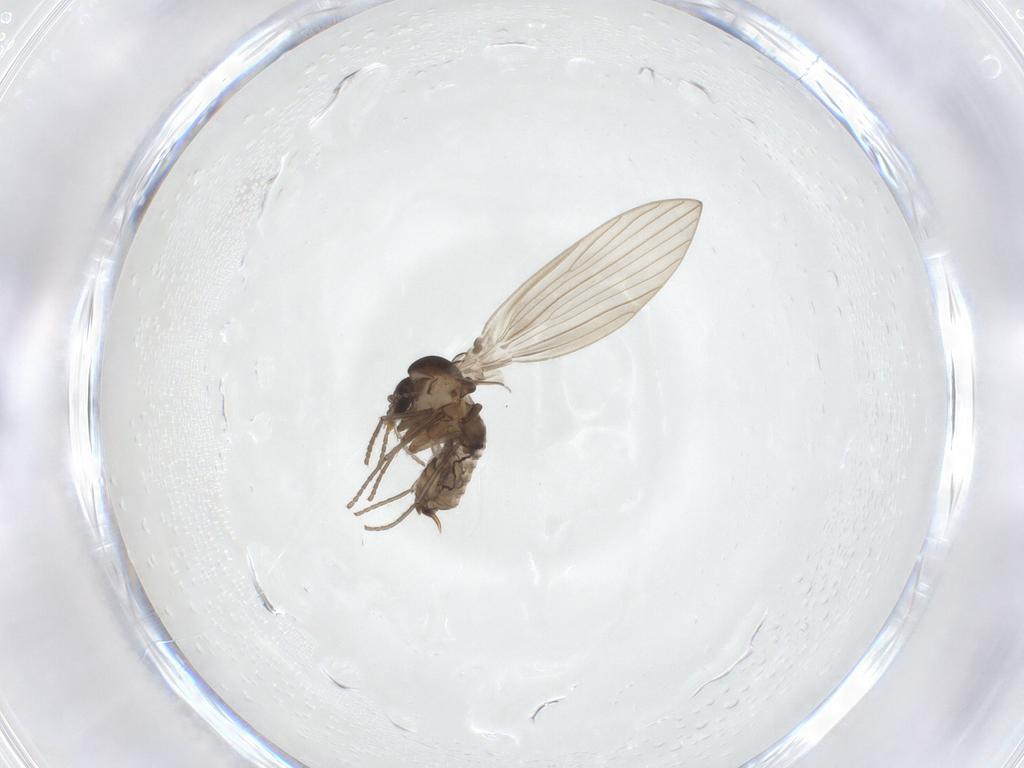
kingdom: Animalia
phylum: Arthropoda
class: Insecta
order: Diptera
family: Psychodidae
